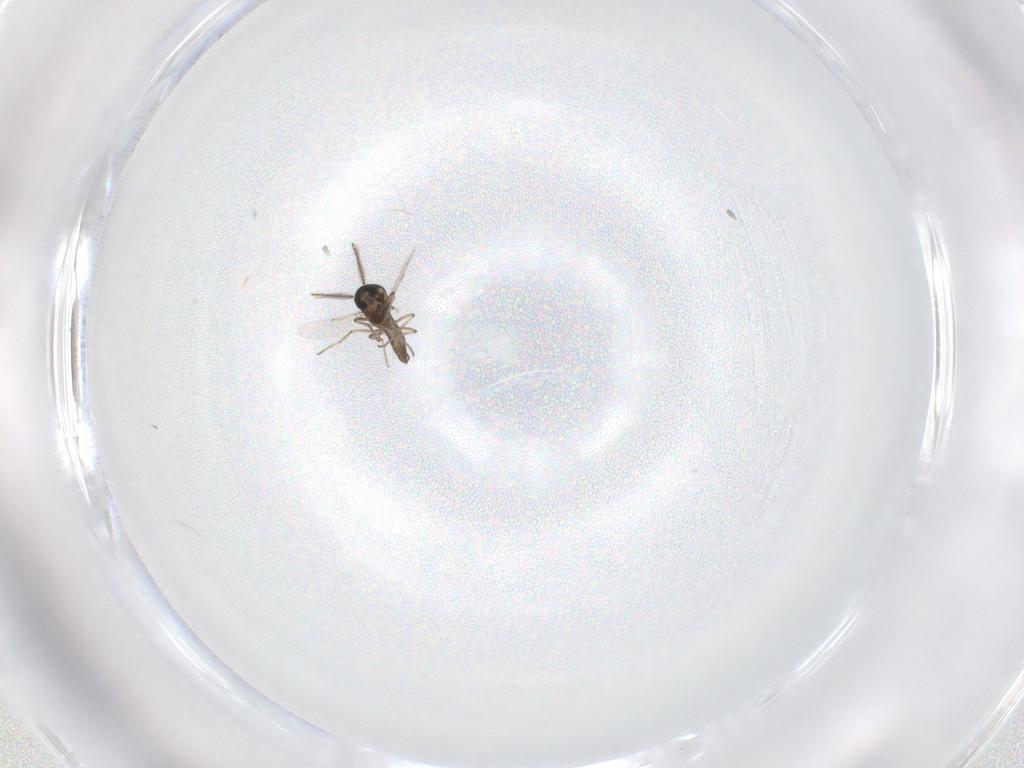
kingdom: Animalia
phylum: Arthropoda
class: Insecta
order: Diptera
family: Ceratopogonidae
